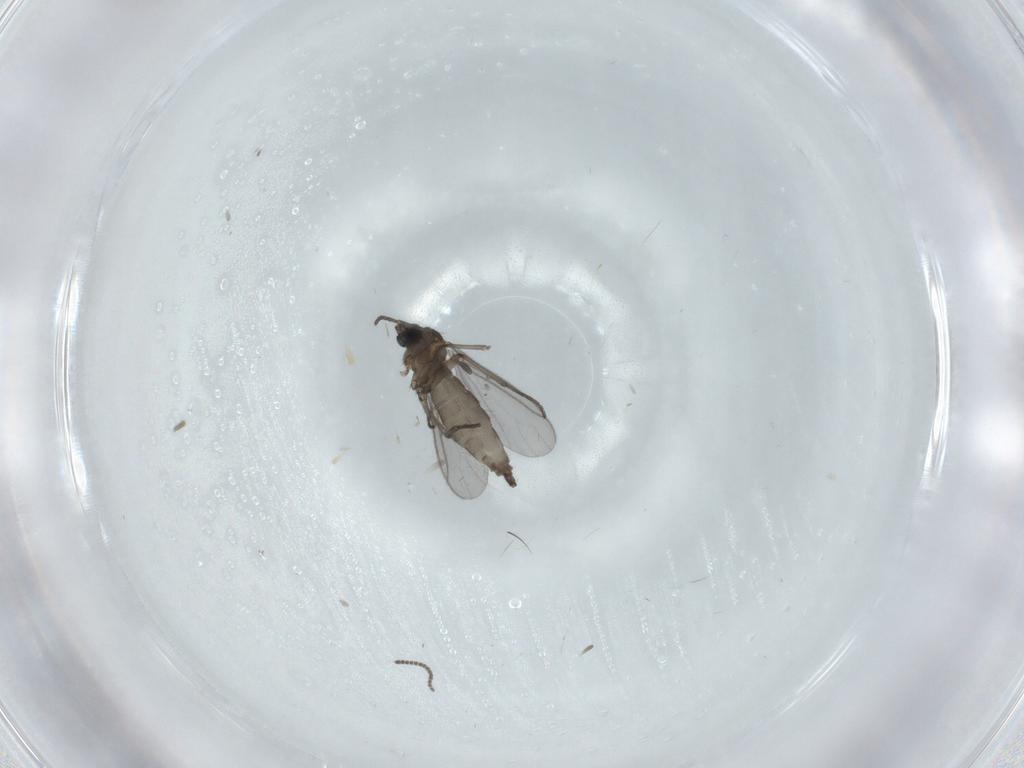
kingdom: Animalia
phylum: Arthropoda
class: Insecta
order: Diptera
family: Sciaridae
